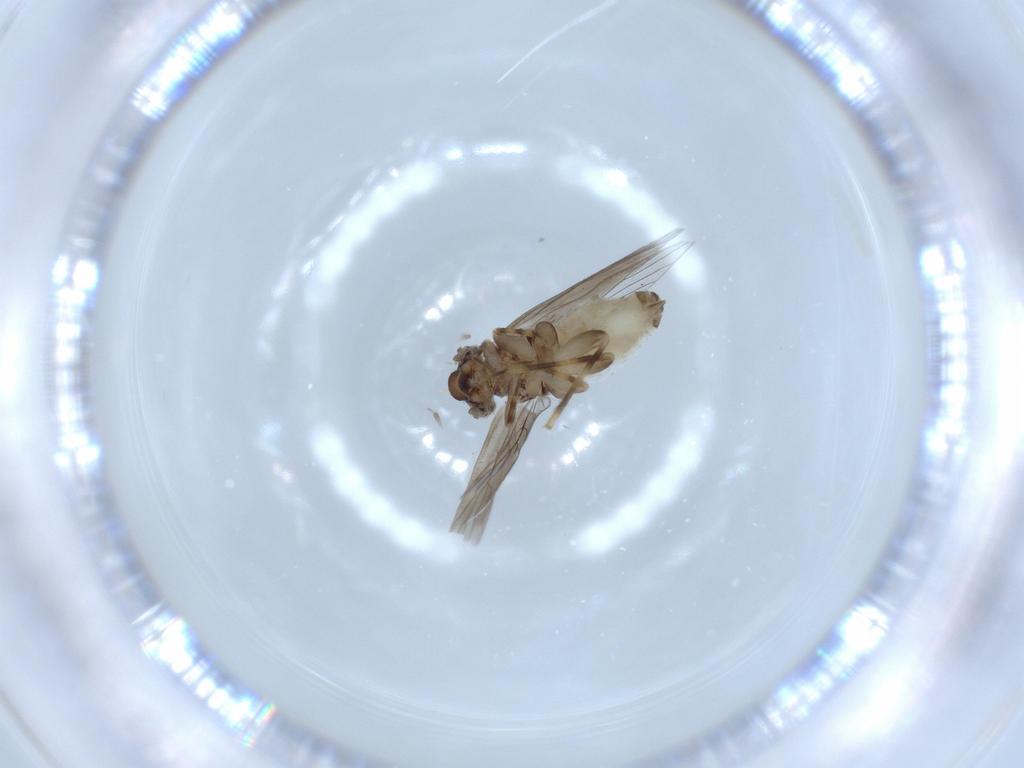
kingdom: Animalia
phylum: Arthropoda
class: Insecta
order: Psocodea
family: Lepidopsocidae
